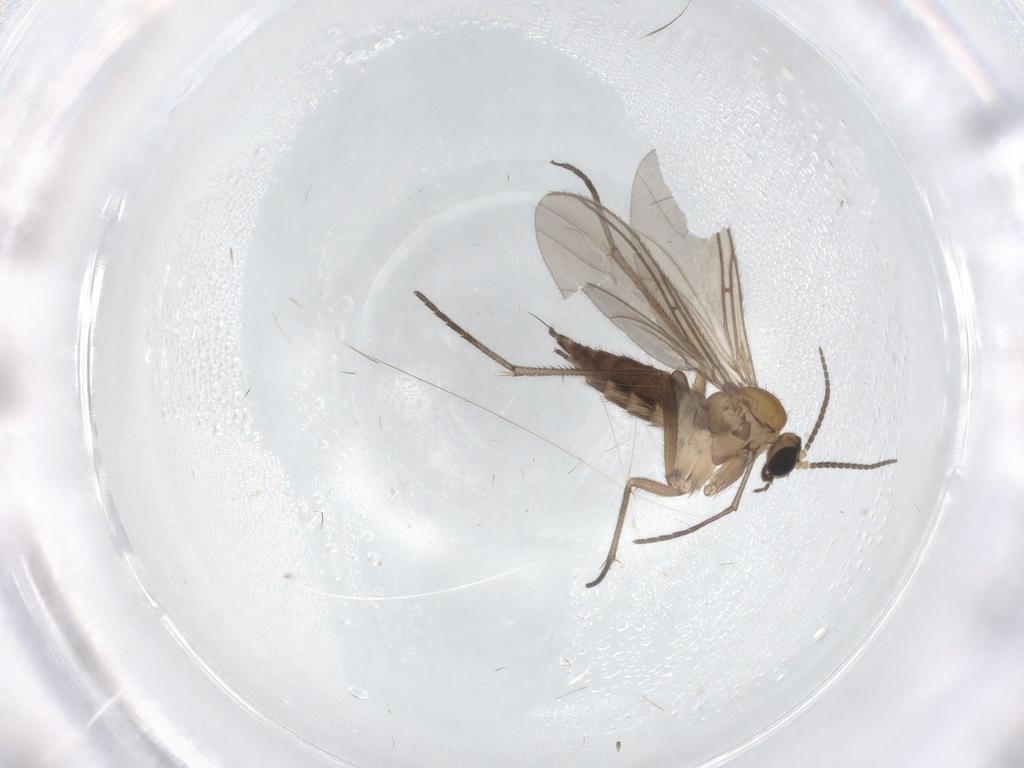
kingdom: Animalia
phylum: Arthropoda
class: Insecta
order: Diptera
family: Sciaridae
